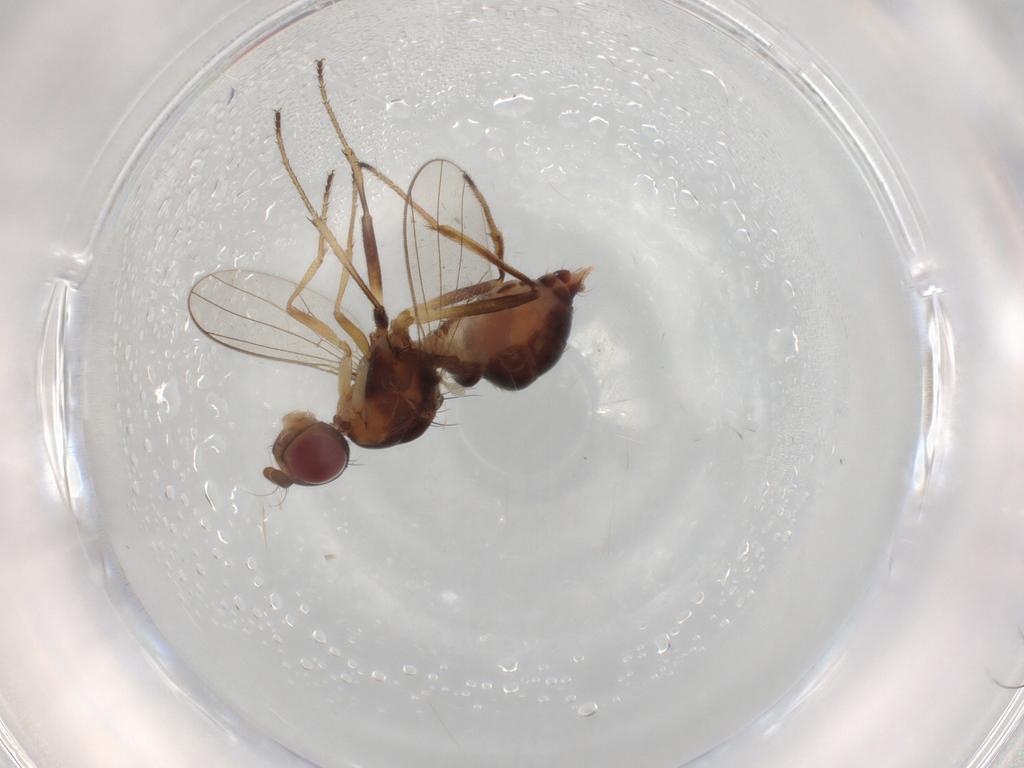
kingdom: Animalia
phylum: Arthropoda
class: Insecta
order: Diptera
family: Sepsidae
